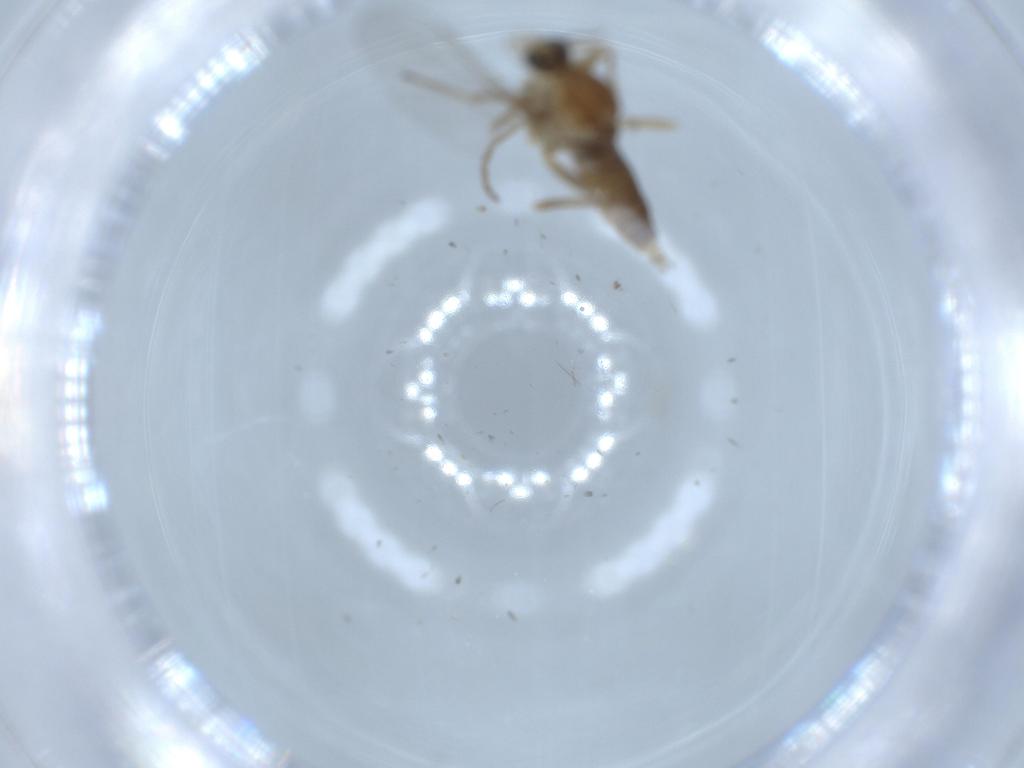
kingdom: Animalia
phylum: Arthropoda
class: Insecta
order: Diptera
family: Cecidomyiidae
